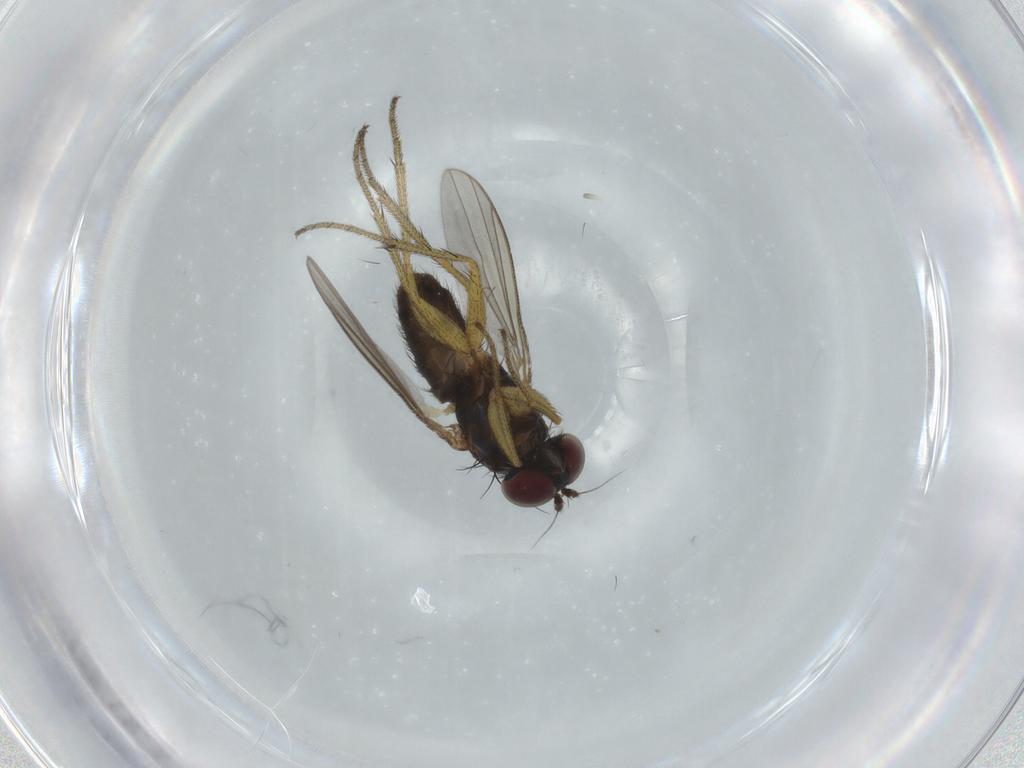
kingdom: Animalia
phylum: Arthropoda
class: Insecta
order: Diptera
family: Dolichopodidae
